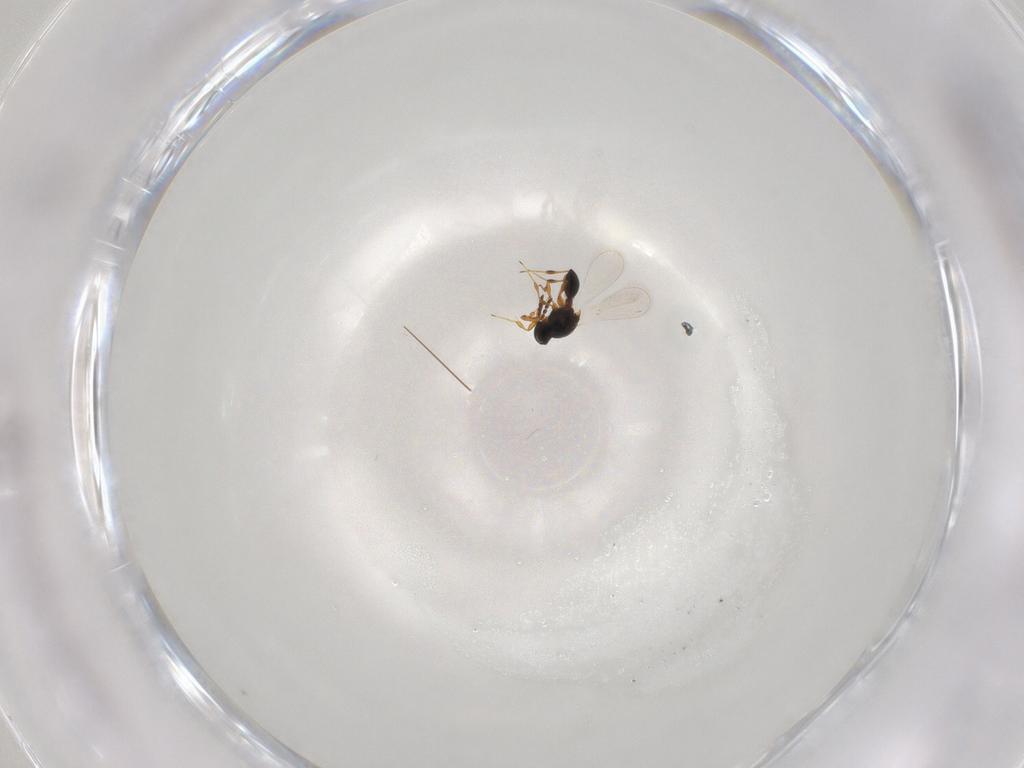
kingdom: Animalia
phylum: Arthropoda
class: Insecta
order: Hymenoptera
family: Platygastridae
